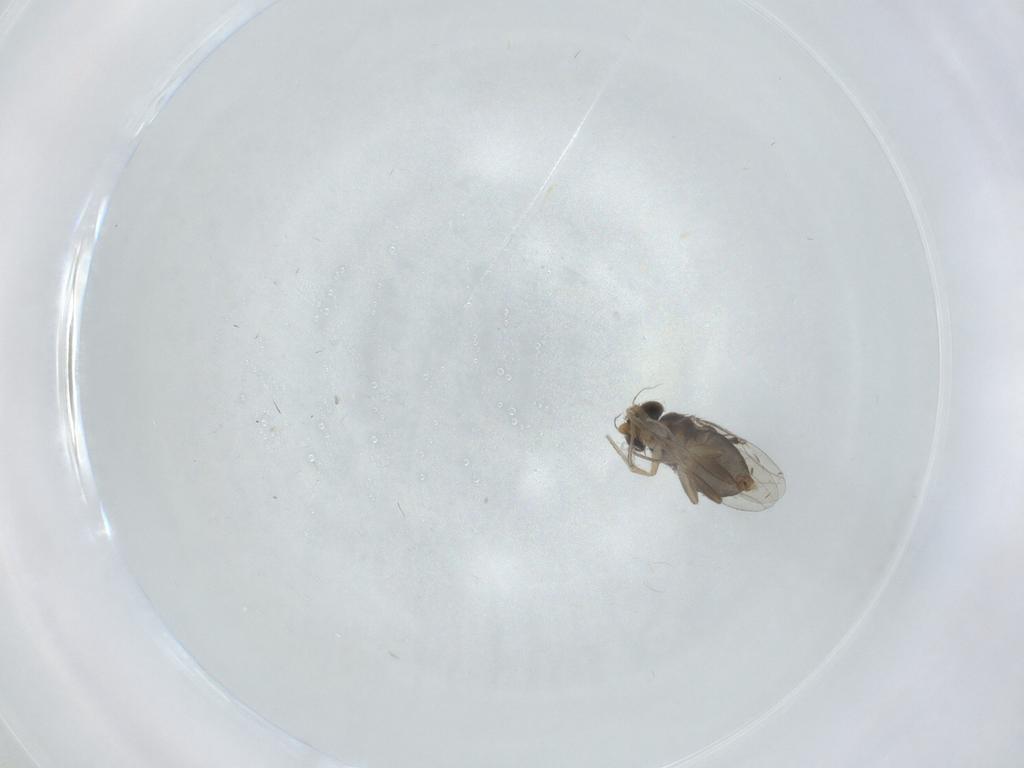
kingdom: Animalia
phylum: Arthropoda
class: Insecta
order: Diptera
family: Phoridae
